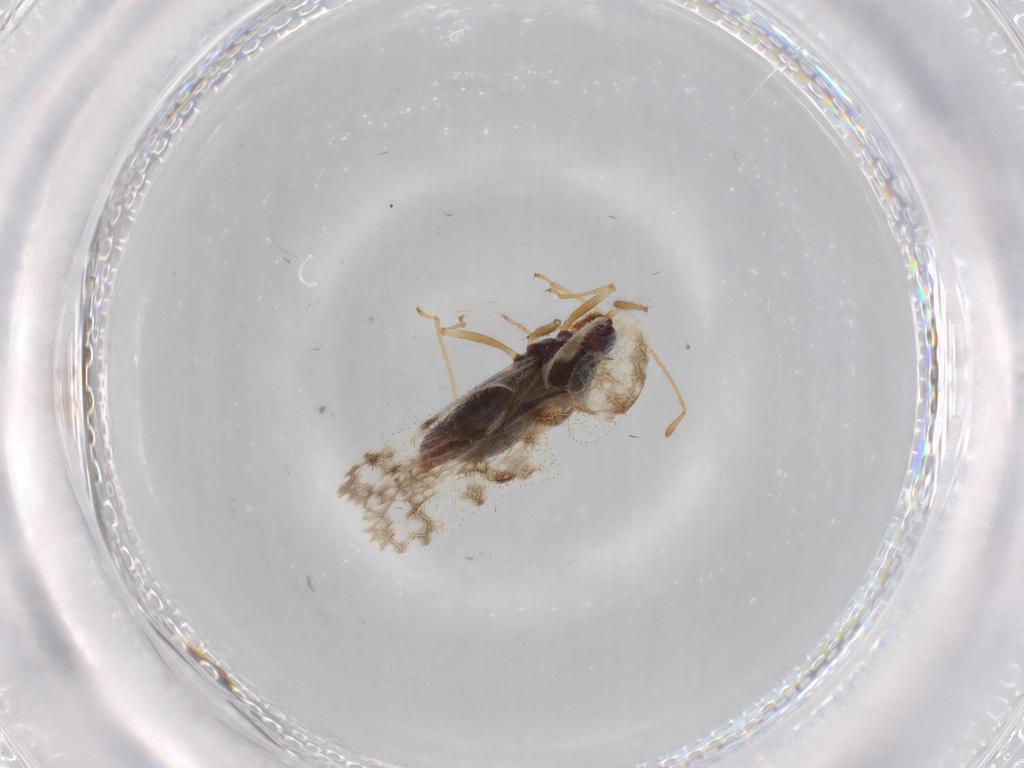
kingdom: Animalia
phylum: Arthropoda
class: Insecta
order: Hemiptera
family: Tingidae
